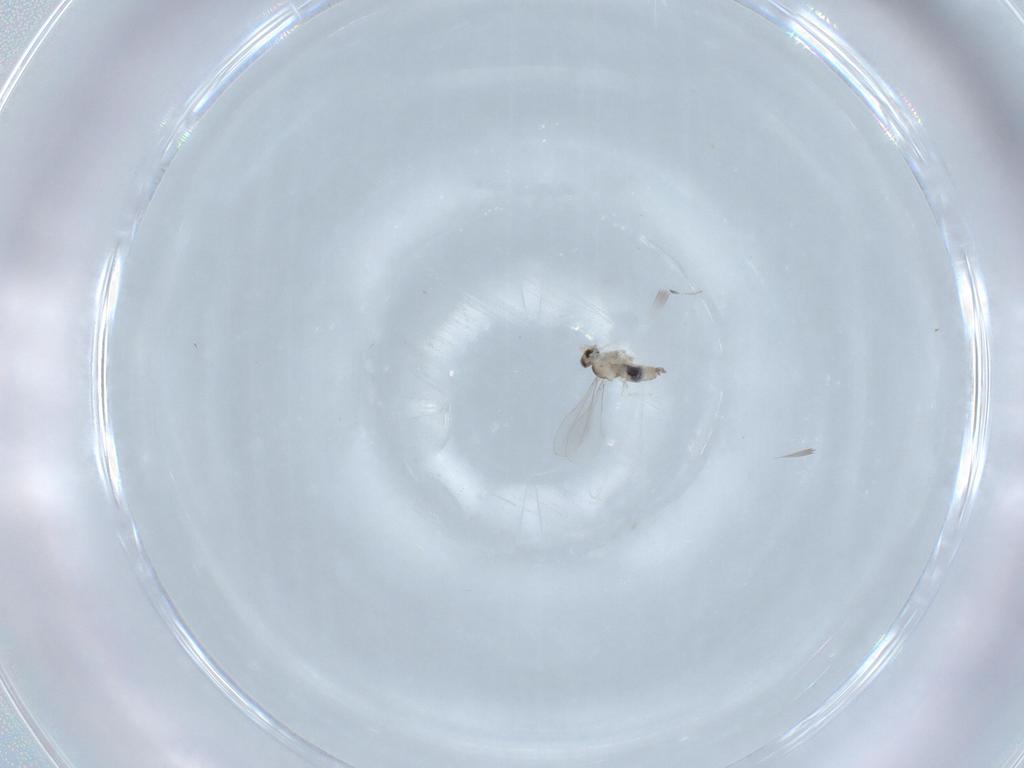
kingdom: Animalia
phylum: Arthropoda
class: Insecta
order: Diptera
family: Cecidomyiidae
